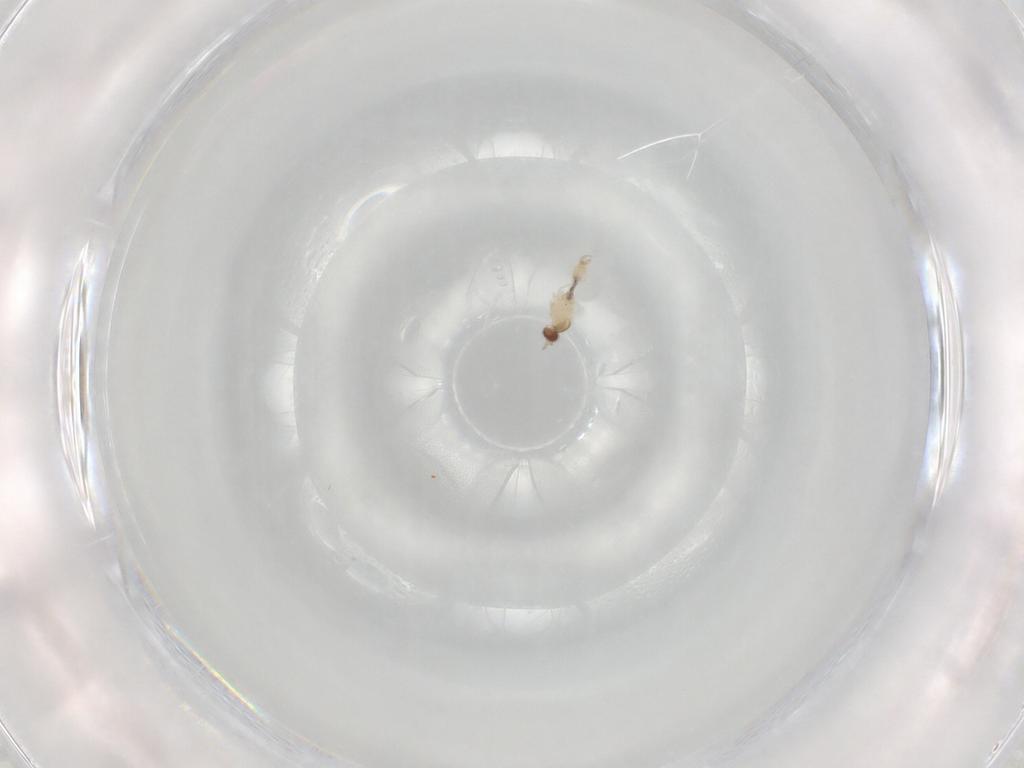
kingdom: Animalia
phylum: Arthropoda
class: Insecta
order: Diptera
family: Cecidomyiidae
